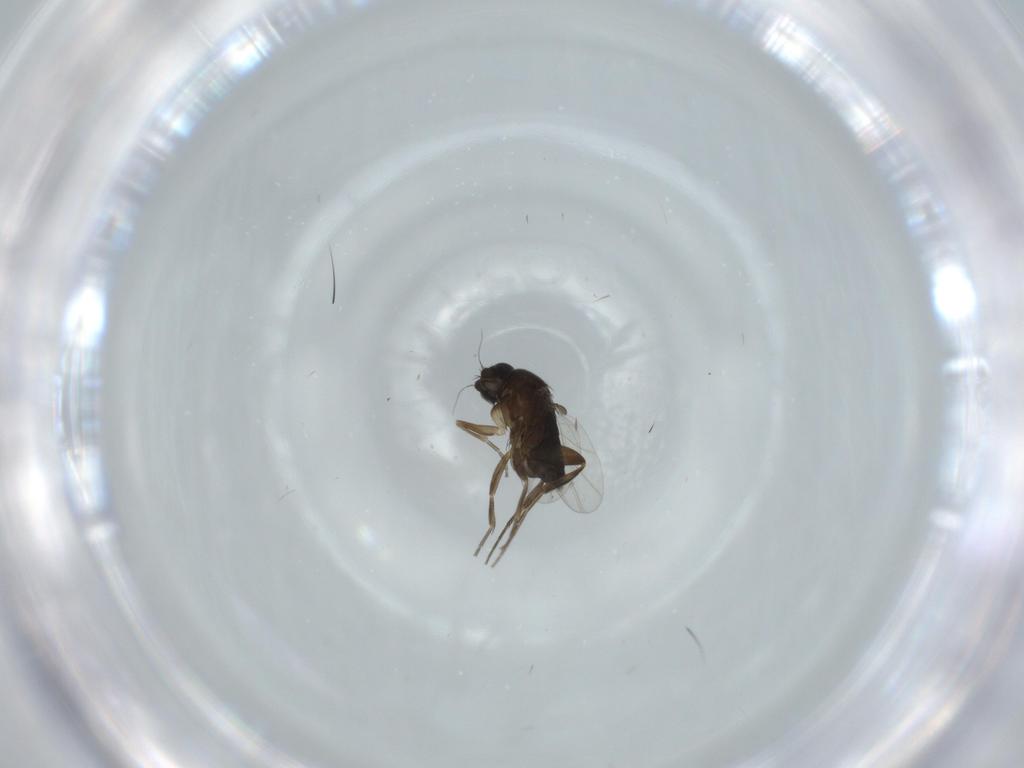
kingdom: Animalia
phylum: Arthropoda
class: Insecta
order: Diptera
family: Phoridae
